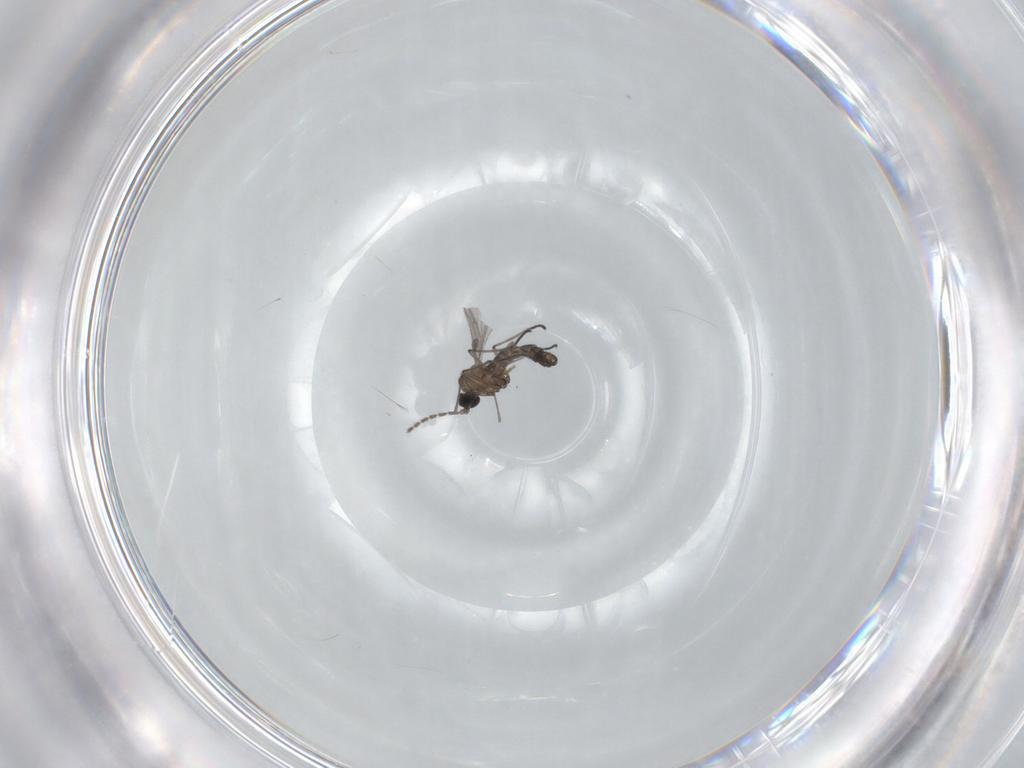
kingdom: Animalia
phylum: Arthropoda
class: Insecta
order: Diptera
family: Sciaridae
